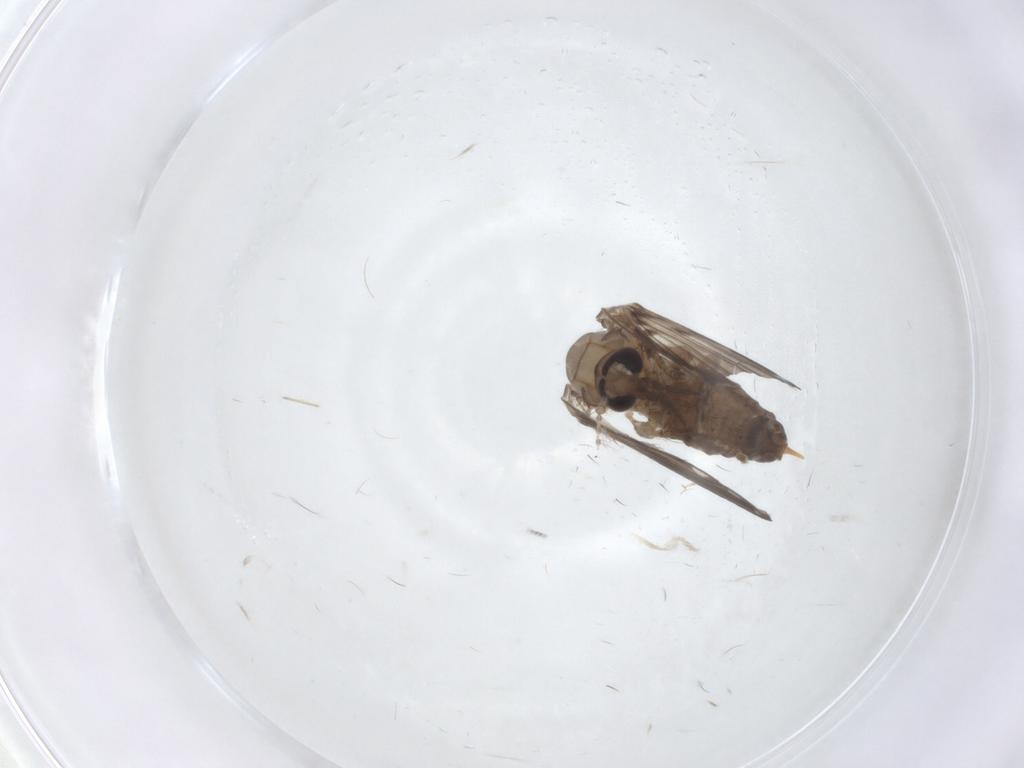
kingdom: Animalia
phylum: Arthropoda
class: Insecta
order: Diptera
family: Psychodidae
